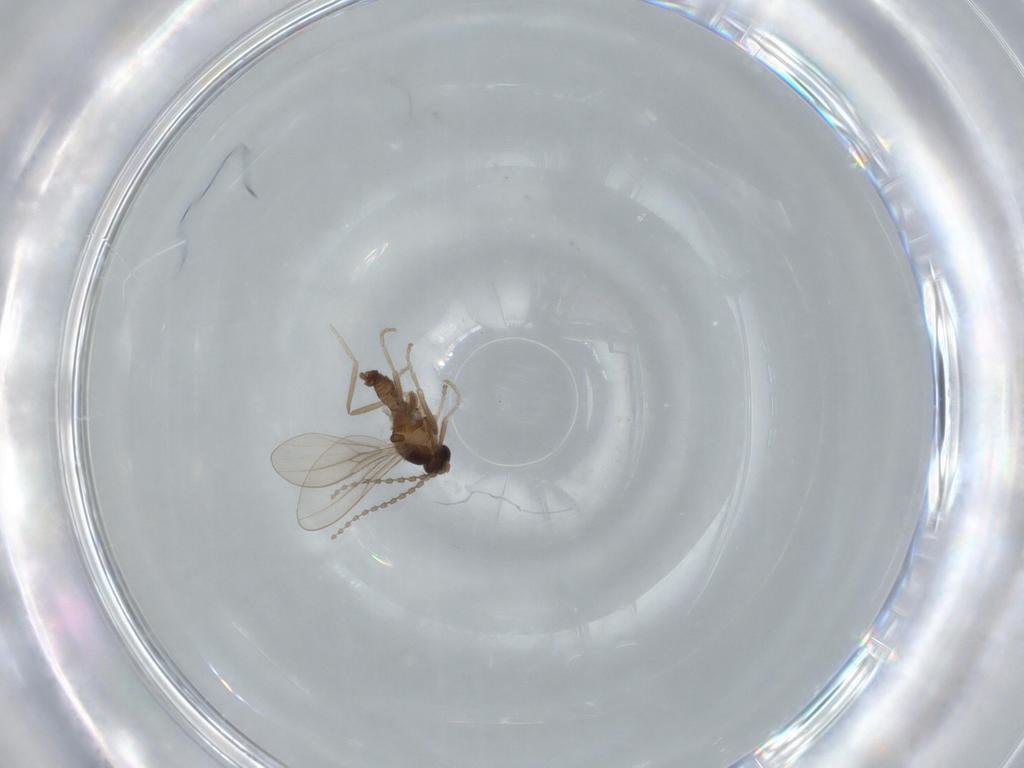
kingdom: Animalia
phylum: Arthropoda
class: Insecta
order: Diptera
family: Cecidomyiidae
